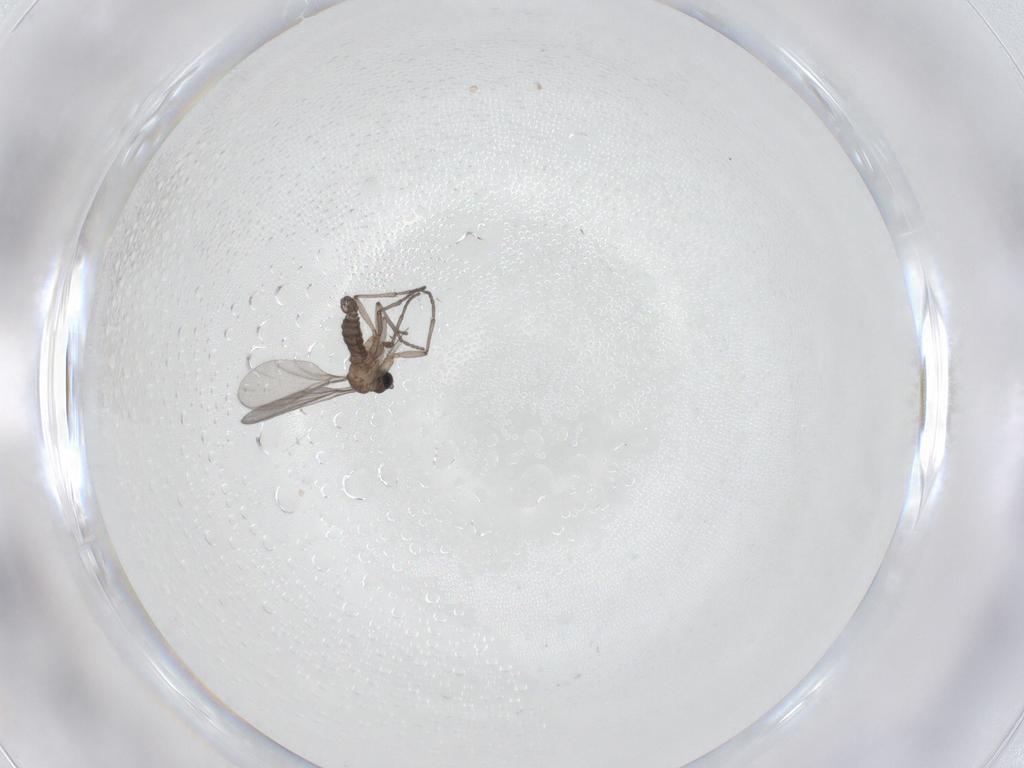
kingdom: Animalia
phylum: Arthropoda
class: Insecta
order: Diptera
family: Sciaridae
